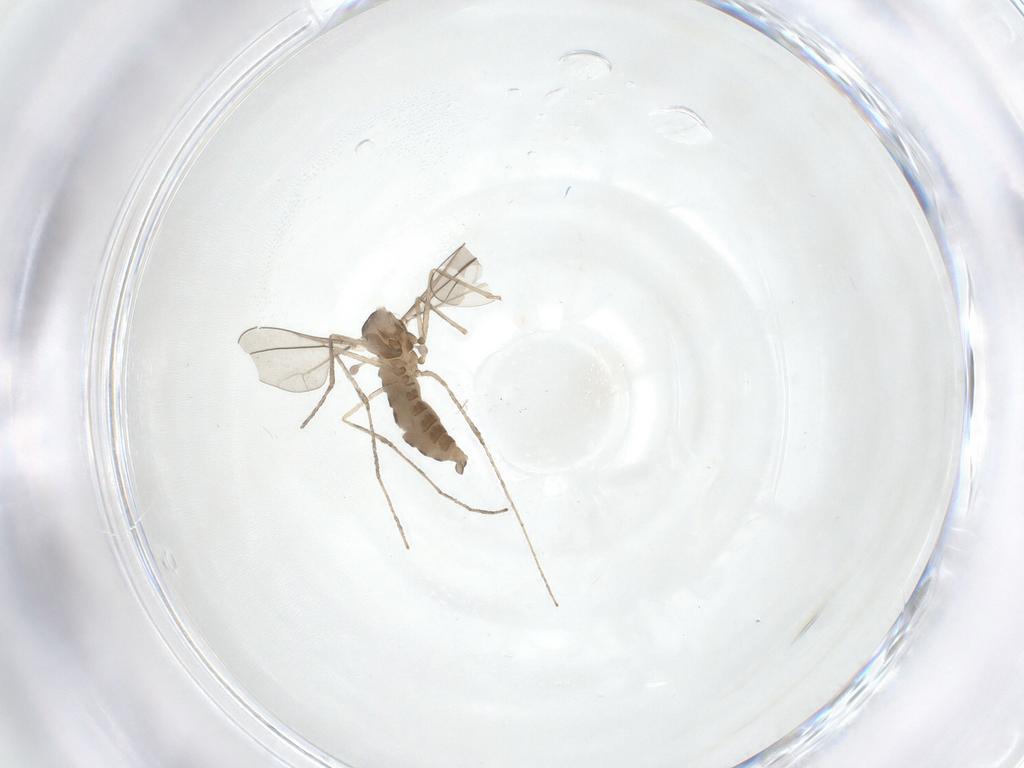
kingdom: Animalia
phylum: Arthropoda
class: Insecta
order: Diptera
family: Cecidomyiidae
